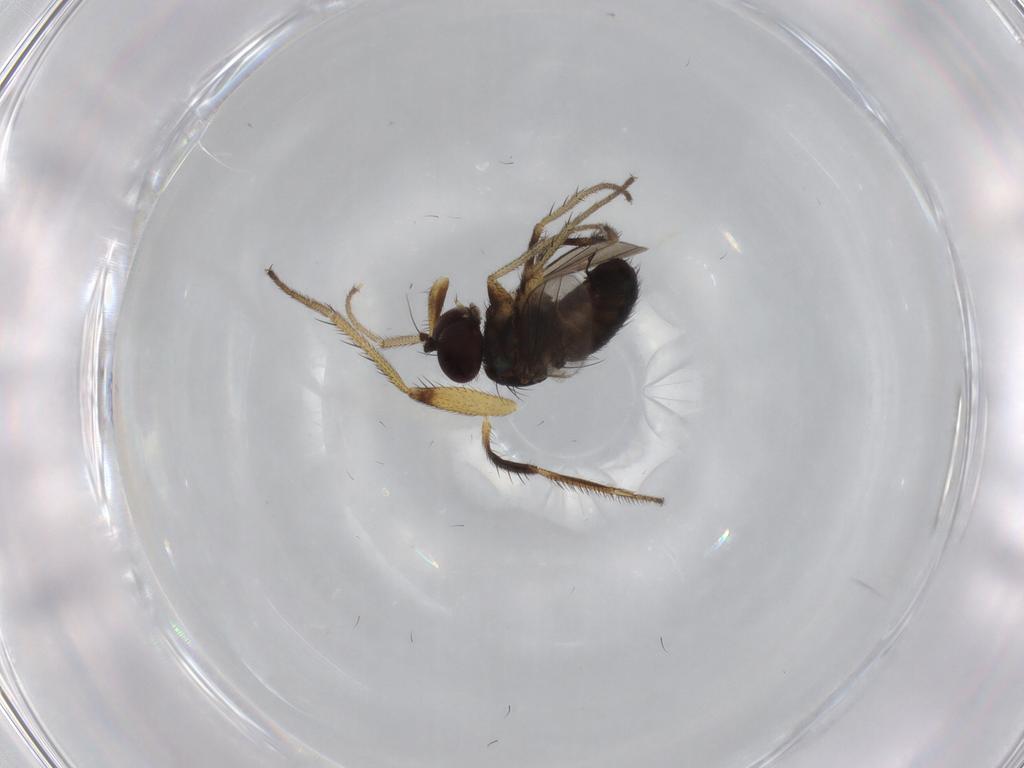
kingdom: Animalia
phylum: Arthropoda
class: Insecta
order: Diptera
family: Dolichopodidae
